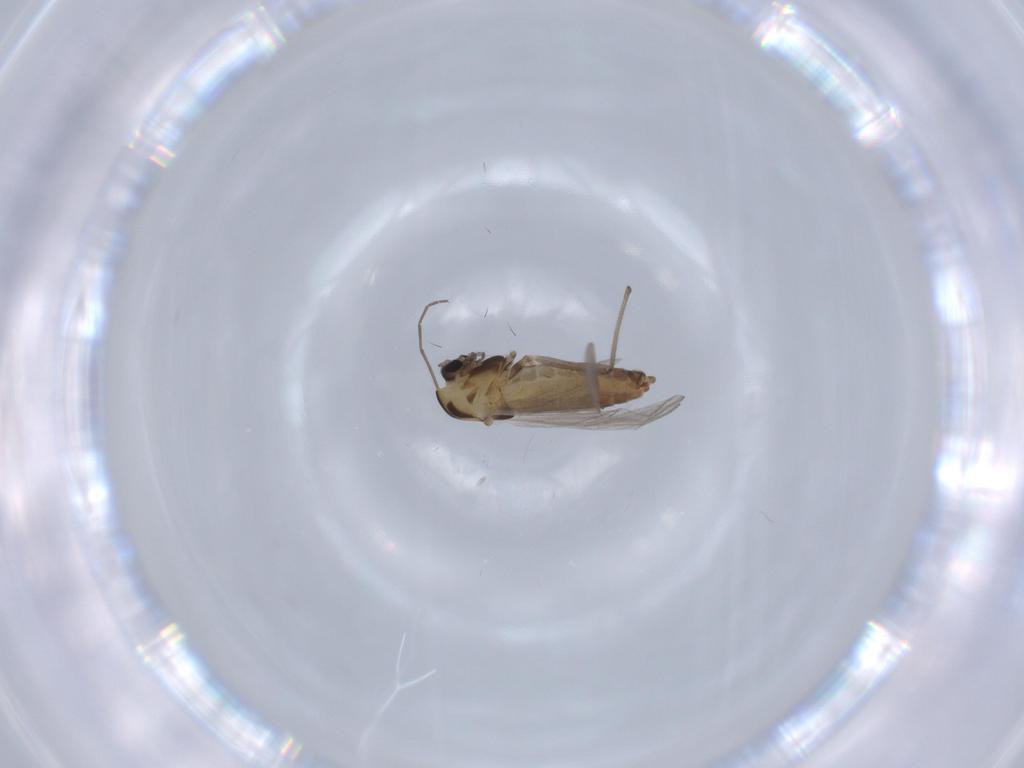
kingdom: Animalia
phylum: Arthropoda
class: Insecta
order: Diptera
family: Chironomidae
